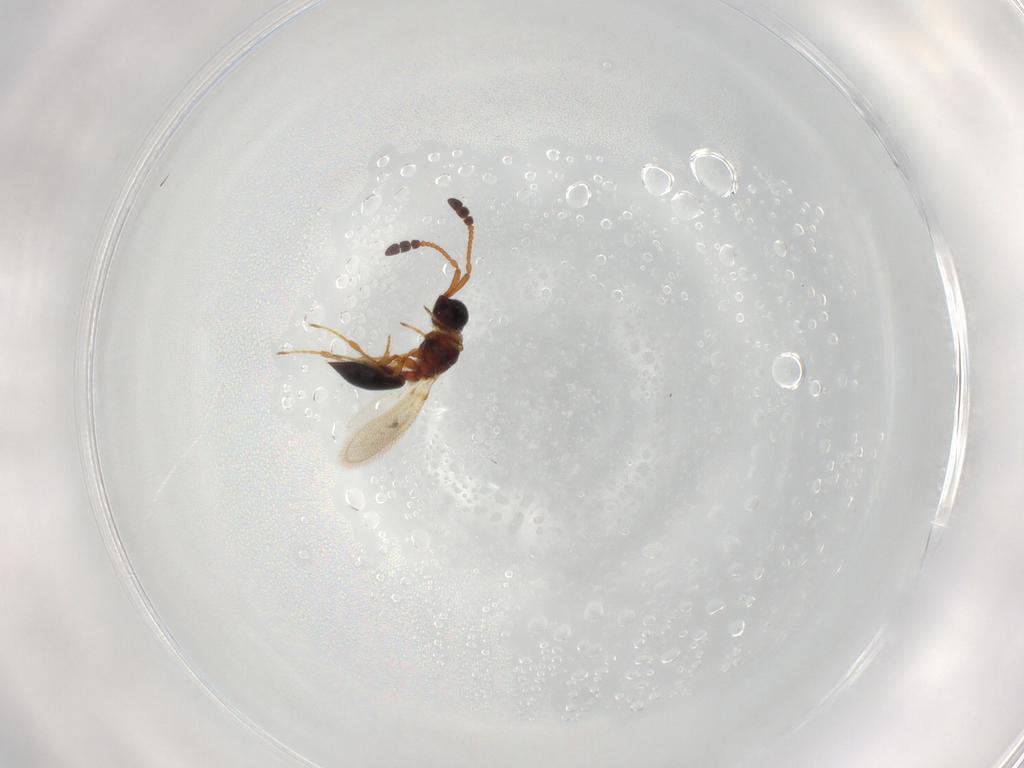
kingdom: Animalia
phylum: Arthropoda
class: Insecta
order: Hymenoptera
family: Diapriidae
